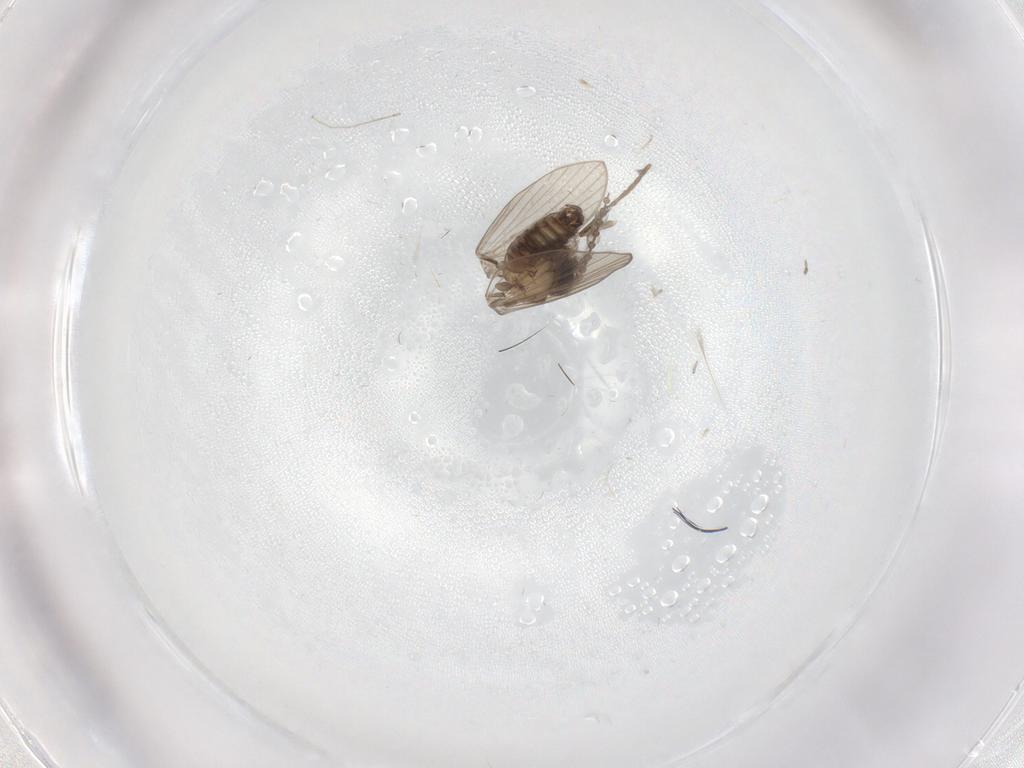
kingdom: Animalia
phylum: Arthropoda
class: Insecta
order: Diptera
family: Psychodidae
